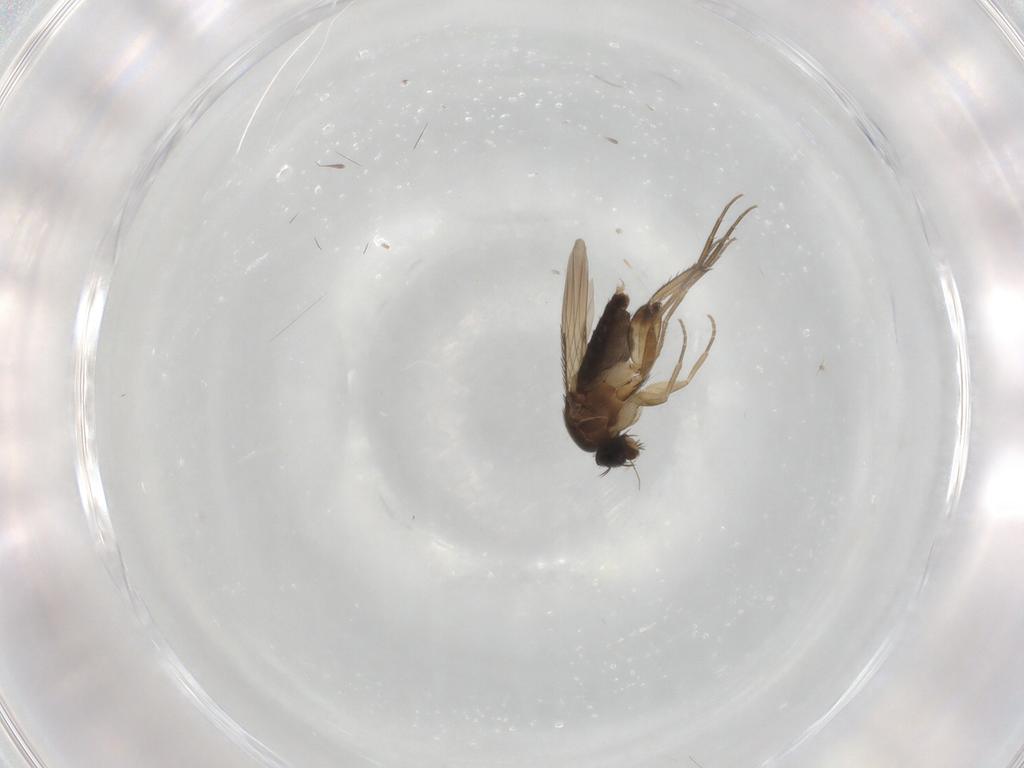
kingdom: Animalia
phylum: Arthropoda
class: Insecta
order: Diptera
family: Phoridae
